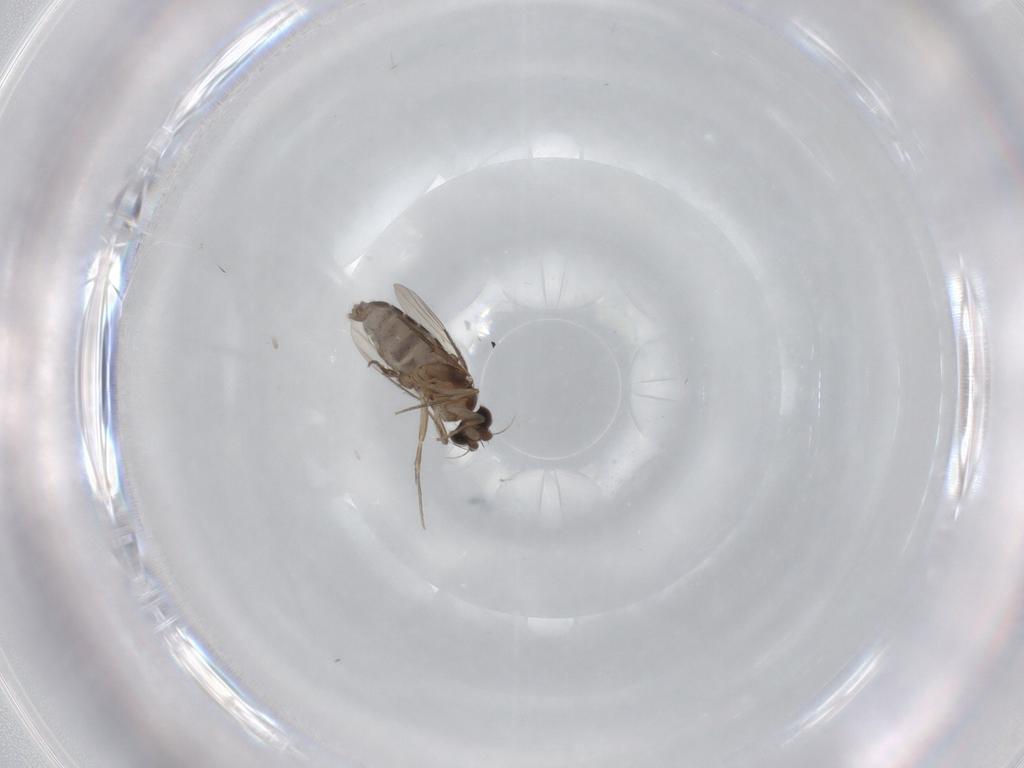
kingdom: Animalia
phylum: Arthropoda
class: Insecta
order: Diptera
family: Phoridae
